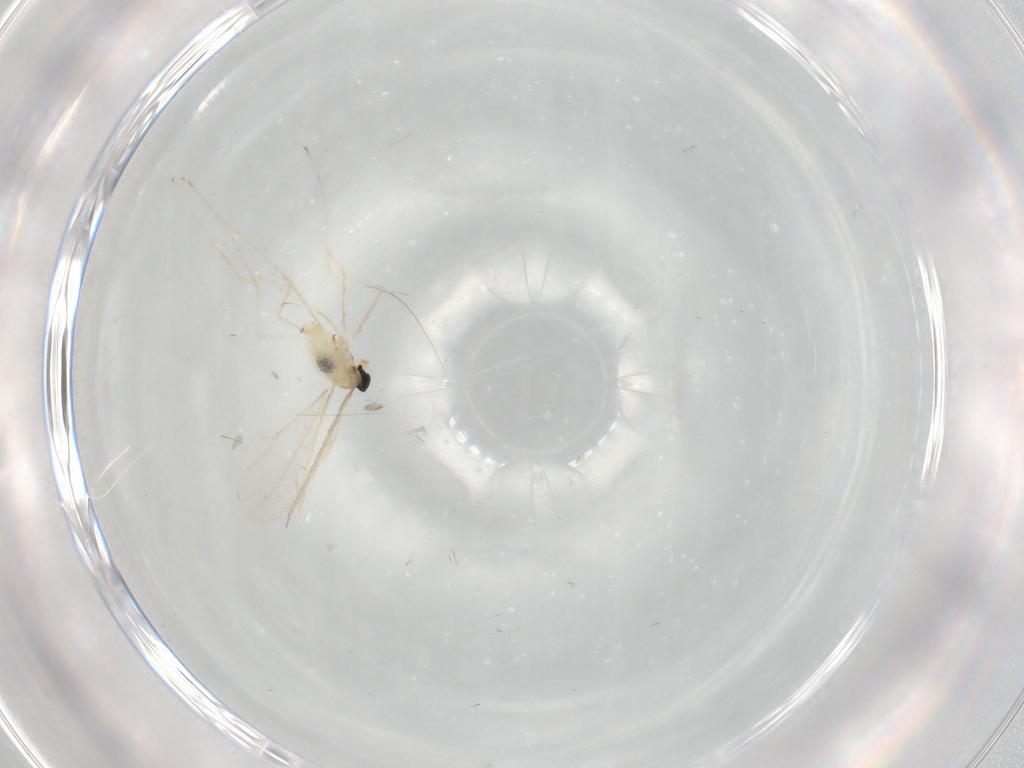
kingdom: Animalia
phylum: Arthropoda
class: Insecta
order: Diptera
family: Cecidomyiidae
